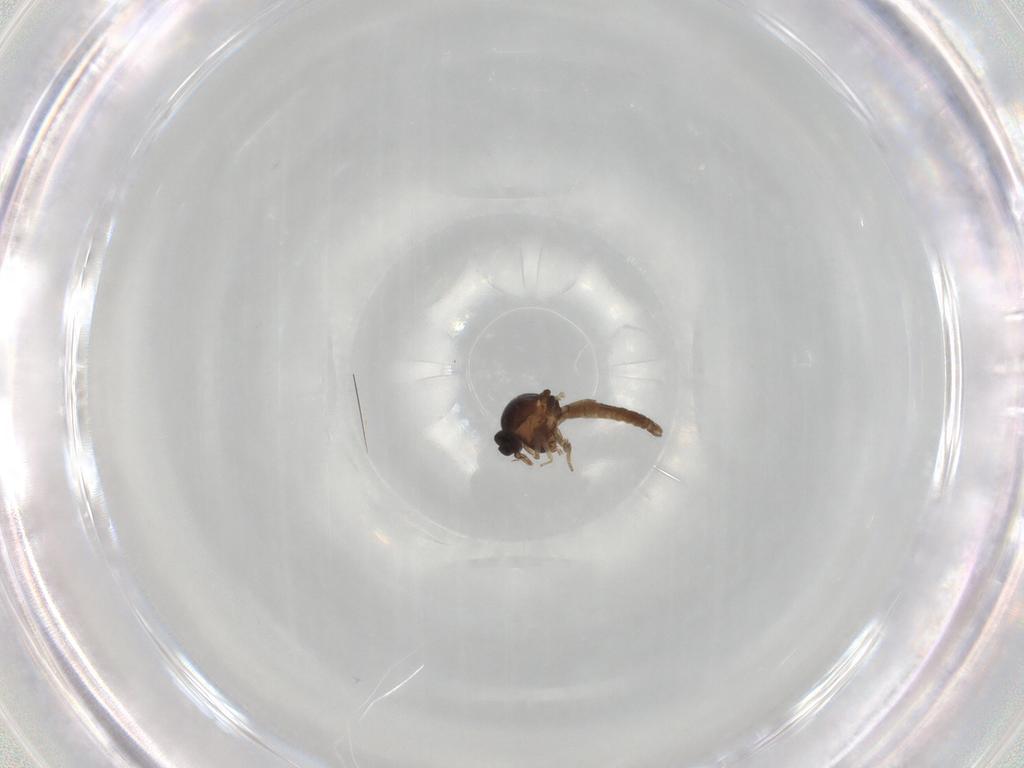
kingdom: Animalia
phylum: Arthropoda
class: Insecta
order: Diptera
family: Ceratopogonidae
